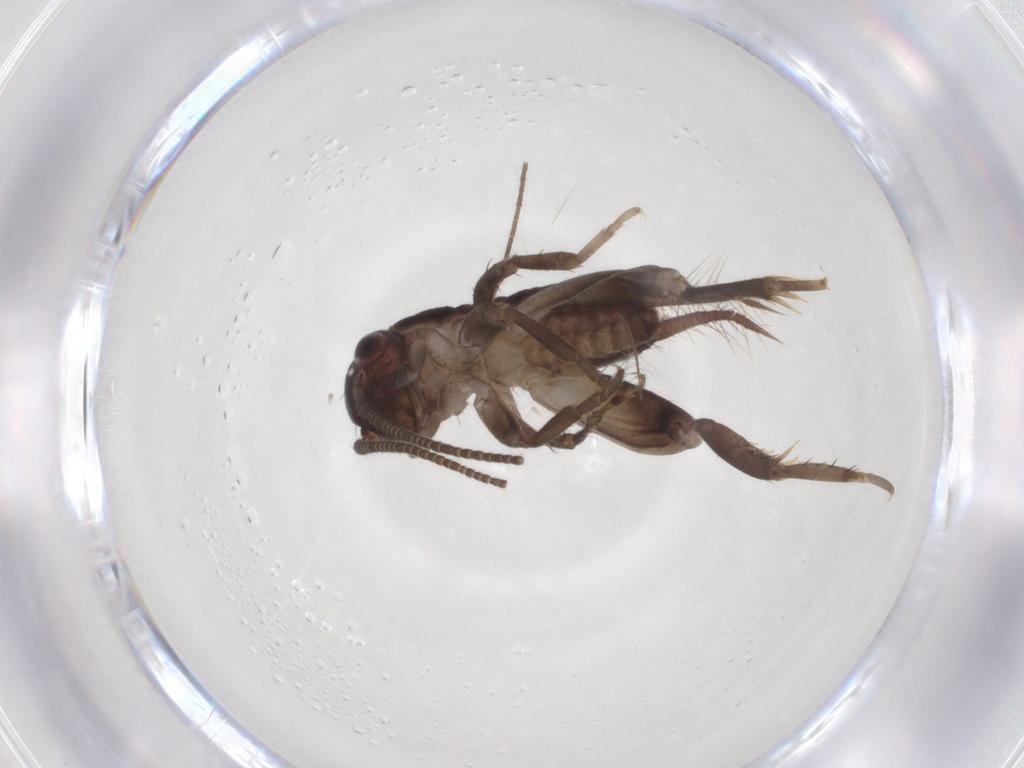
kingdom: Animalia
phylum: Arthropoda
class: Insecta
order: Orthoptera
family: Gryllidae
